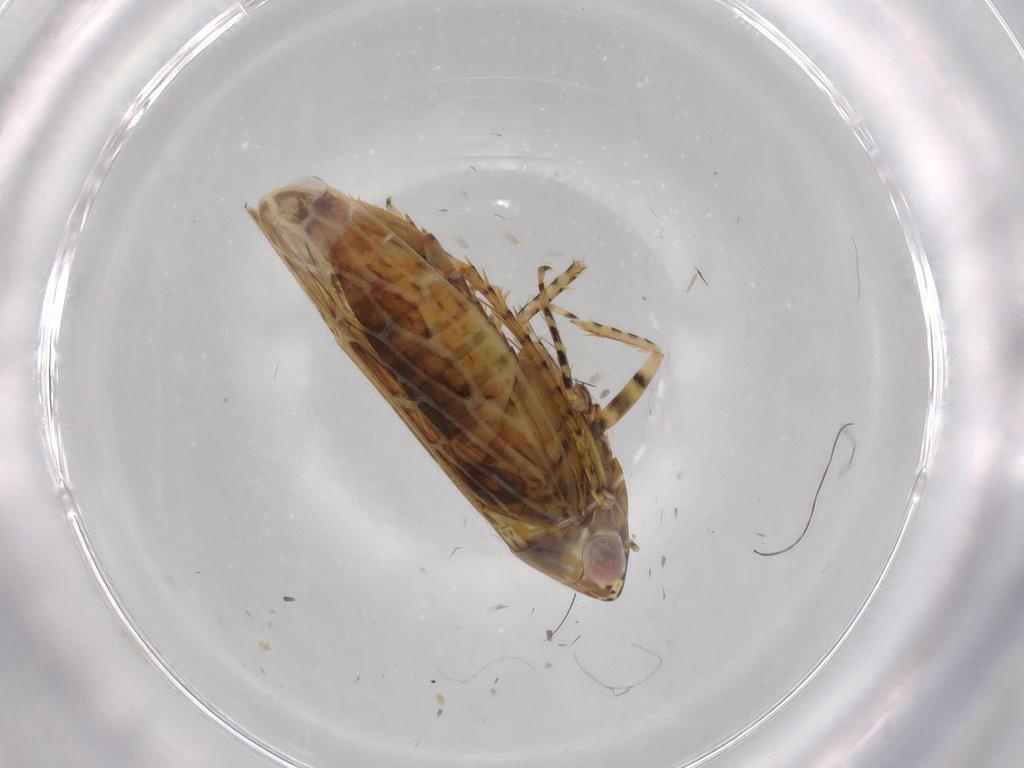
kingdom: Animalia
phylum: Arthropoda
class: Insecta
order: Hemiptera
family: Cicadellidae
